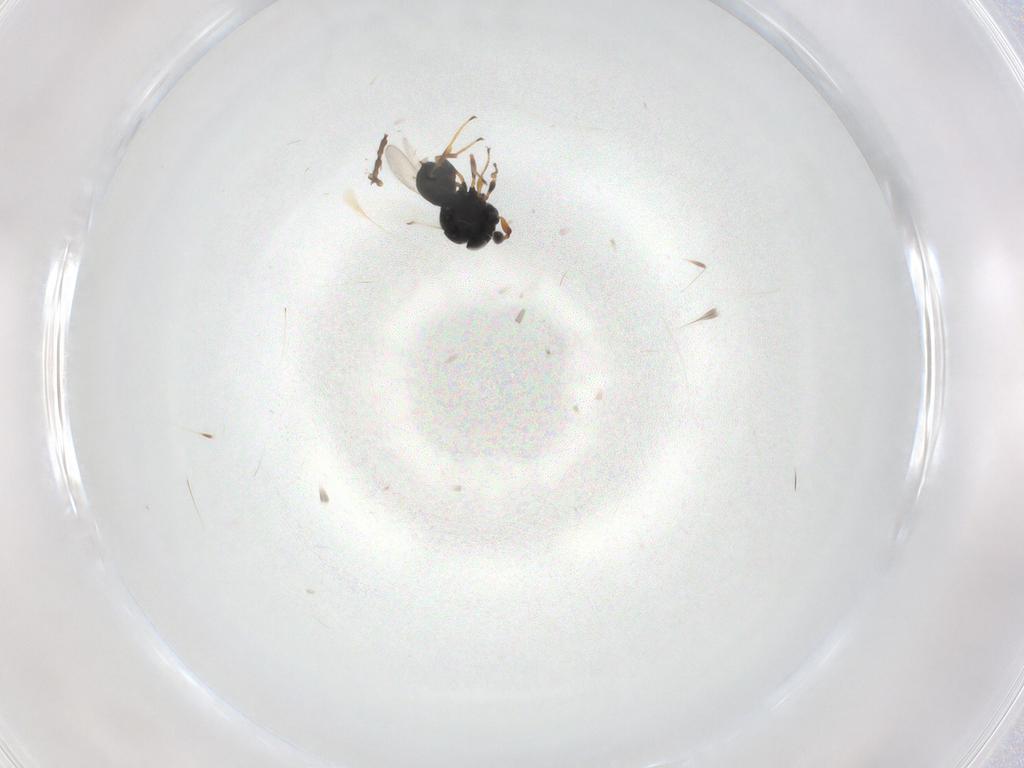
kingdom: Animalia
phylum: Arthropoda
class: Insecta
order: Hymenoptera
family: Scelionidae
